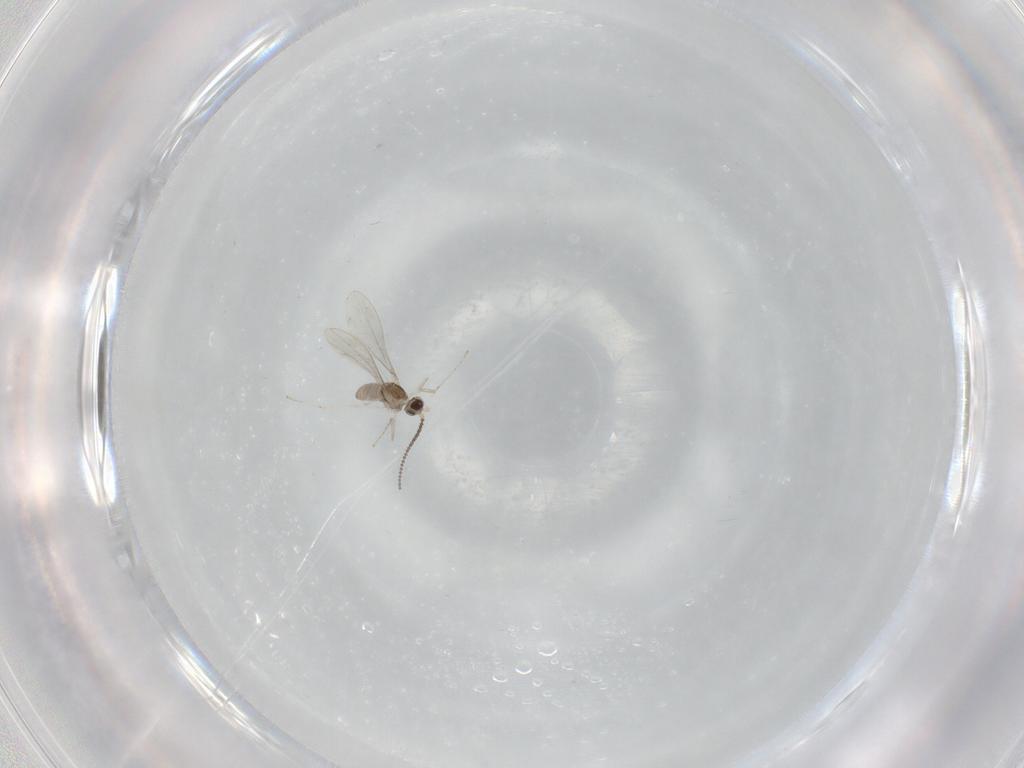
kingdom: Animalia
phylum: Arthropoda
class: Insecta
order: Diptera
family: Cecidomyiidae
